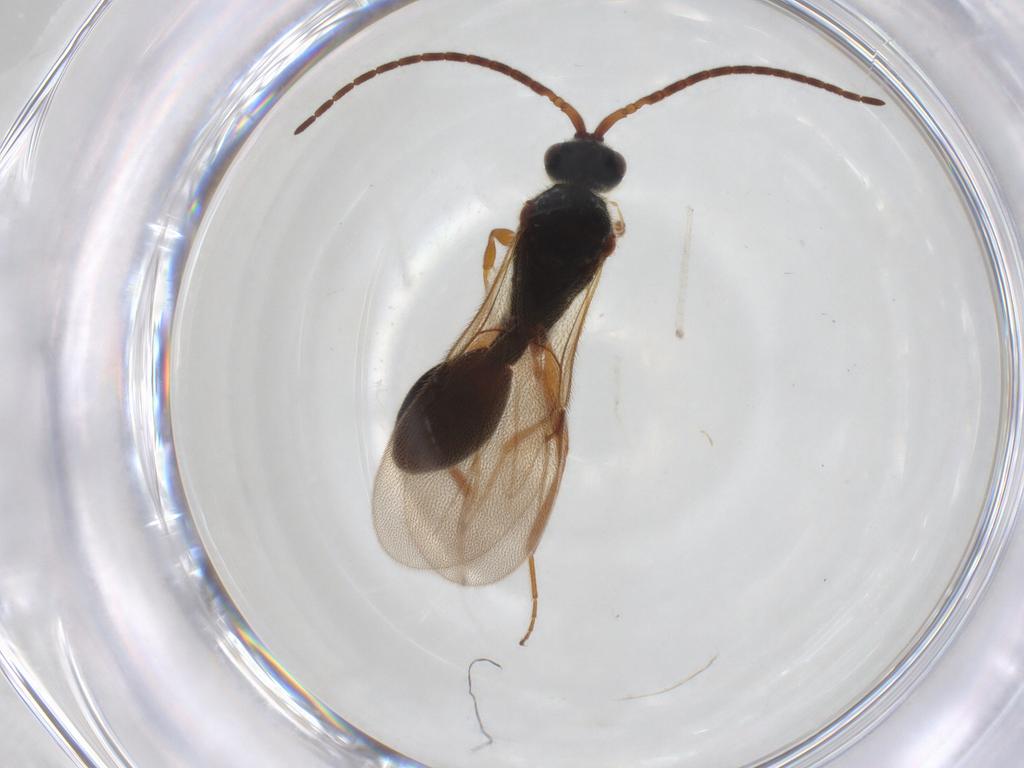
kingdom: Animalia
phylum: Arthropoda
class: Insecta
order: Hymenoptera
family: Diapriidae
